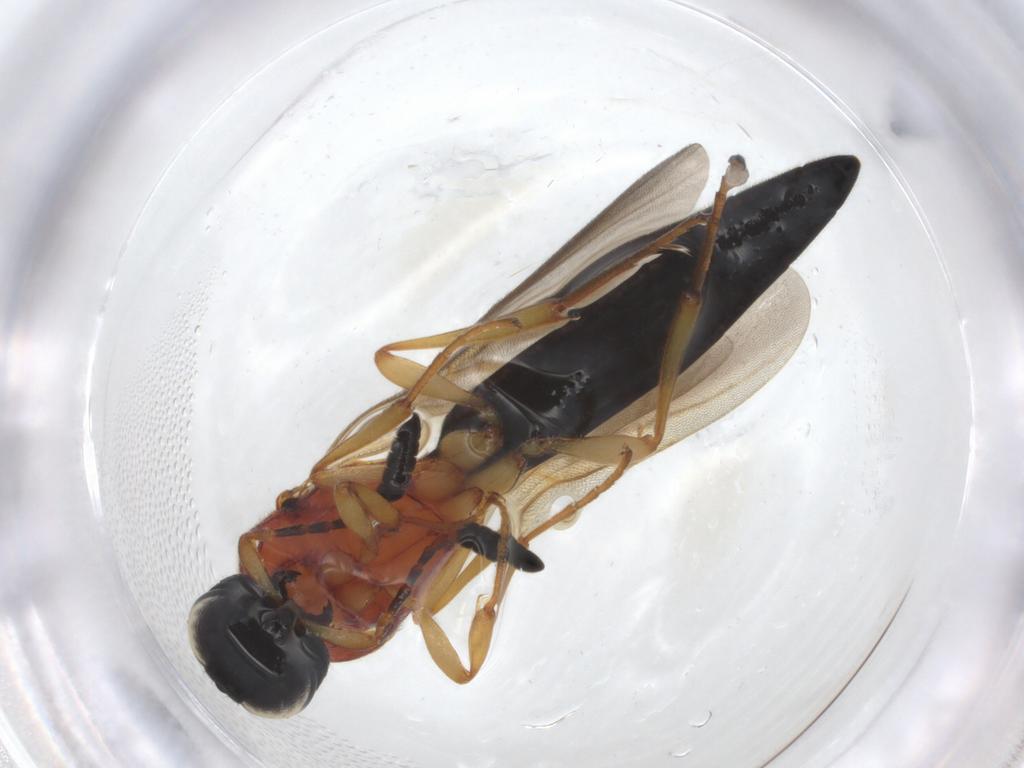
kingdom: Animalia
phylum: Arthropoda
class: Insecta
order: Hymenoptera
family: Scelionidae
